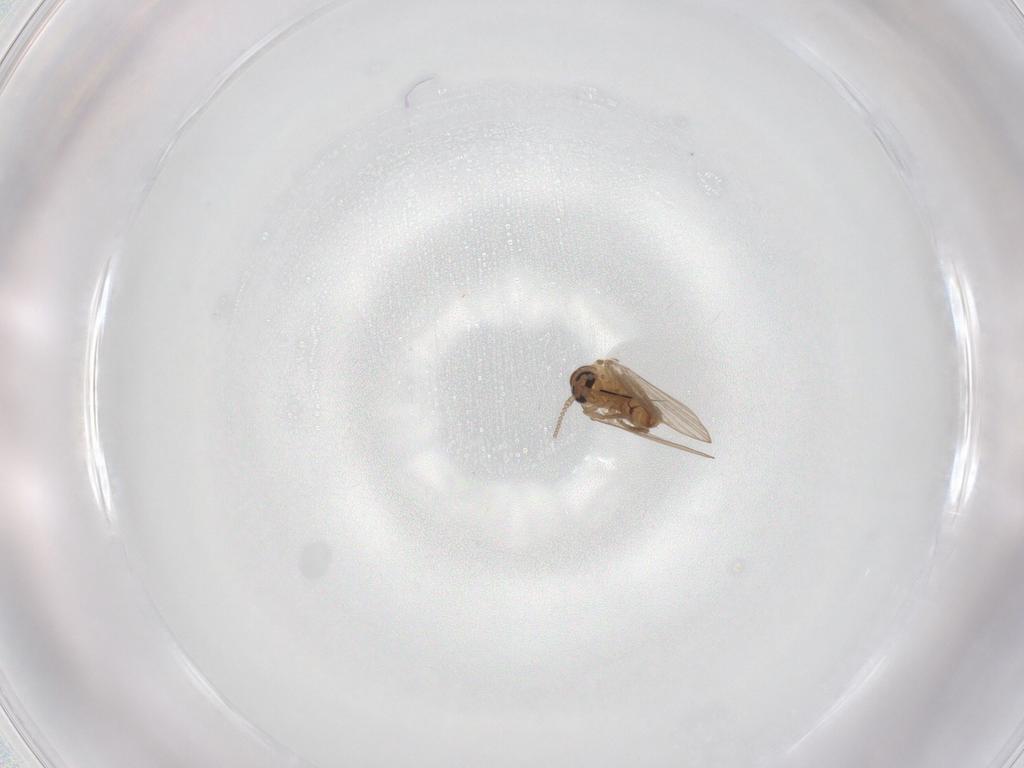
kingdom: Animalia
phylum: Arthropoda
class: Insecta
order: Diptera
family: Psychodidae
